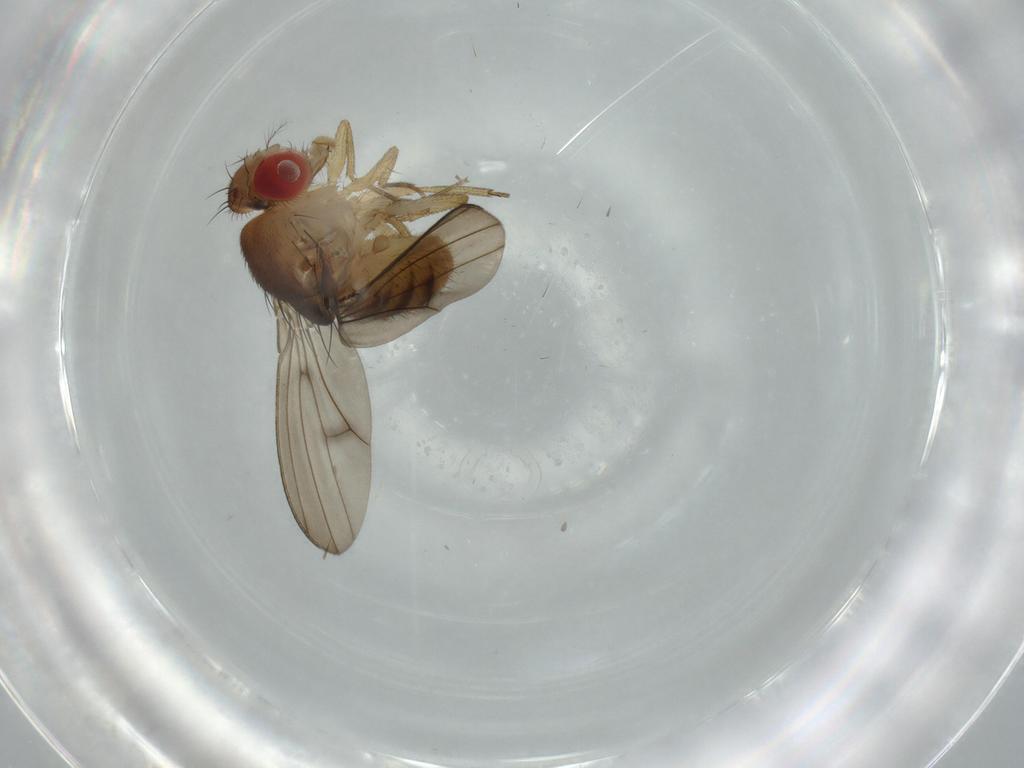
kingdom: Animalia
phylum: Arthropoda
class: Insecta
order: Diptera
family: Drosophilidae
